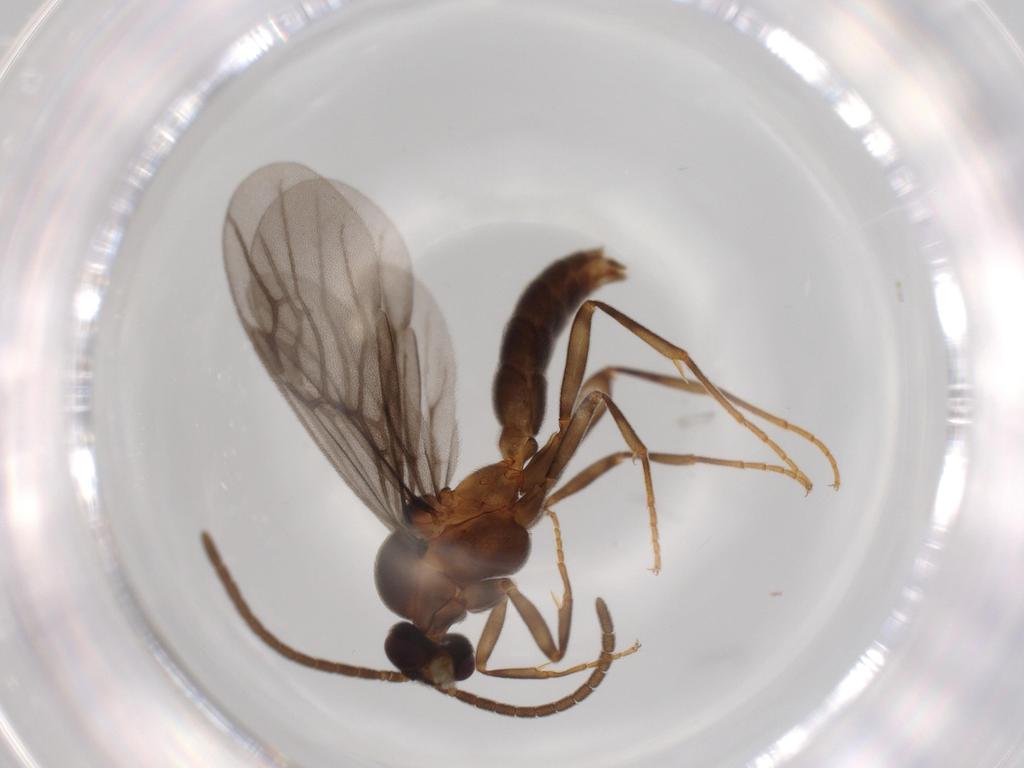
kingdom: Animalia
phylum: Arthropoda
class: Insecta
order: Hymenoptera
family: Formicidae
